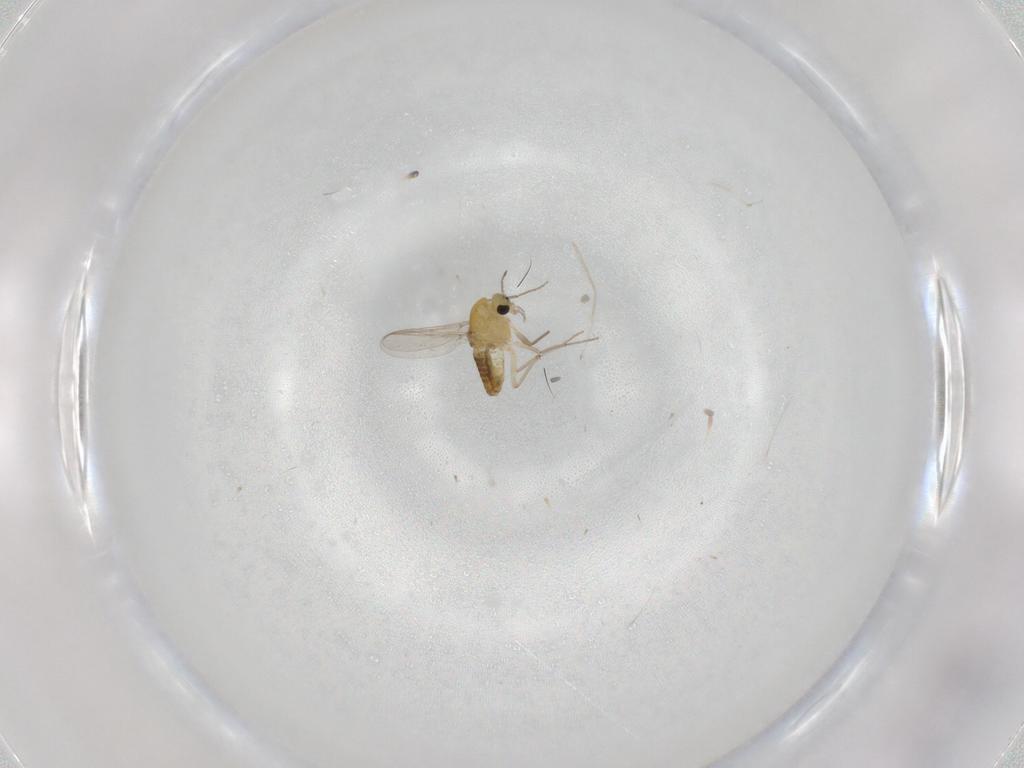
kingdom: Animalia
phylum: Arthropoda
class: Insecta
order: Diptera
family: Chironomidae
